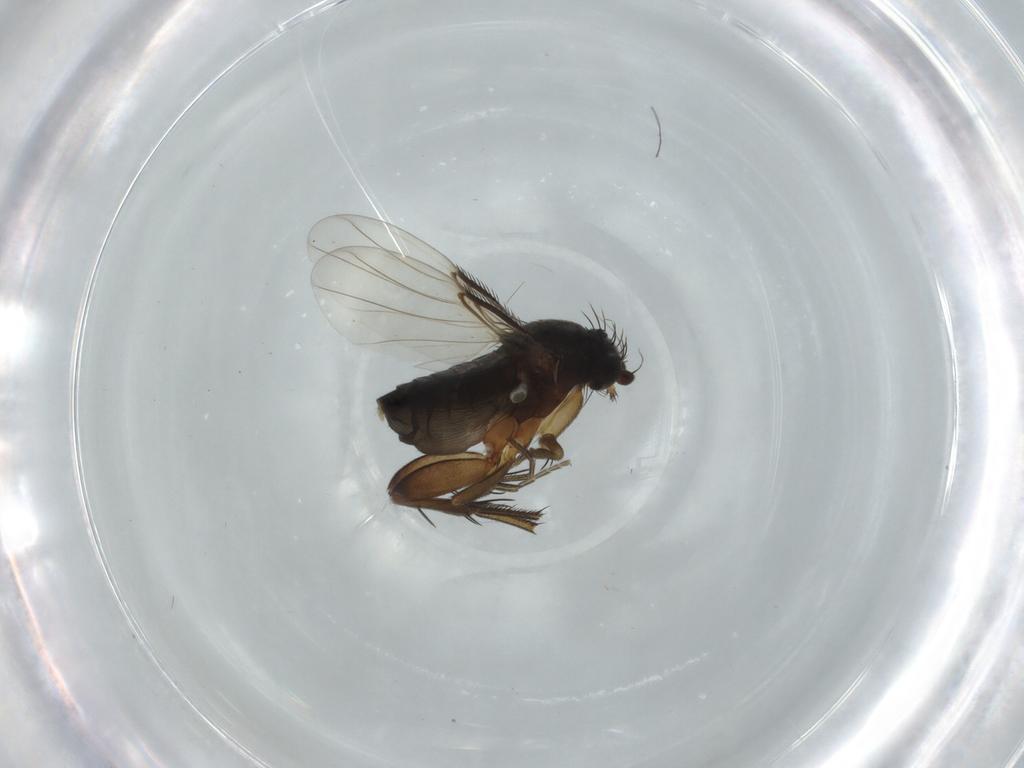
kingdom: Animalia
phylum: Arthropoda
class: Insecta
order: Diptera
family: Phoridae
